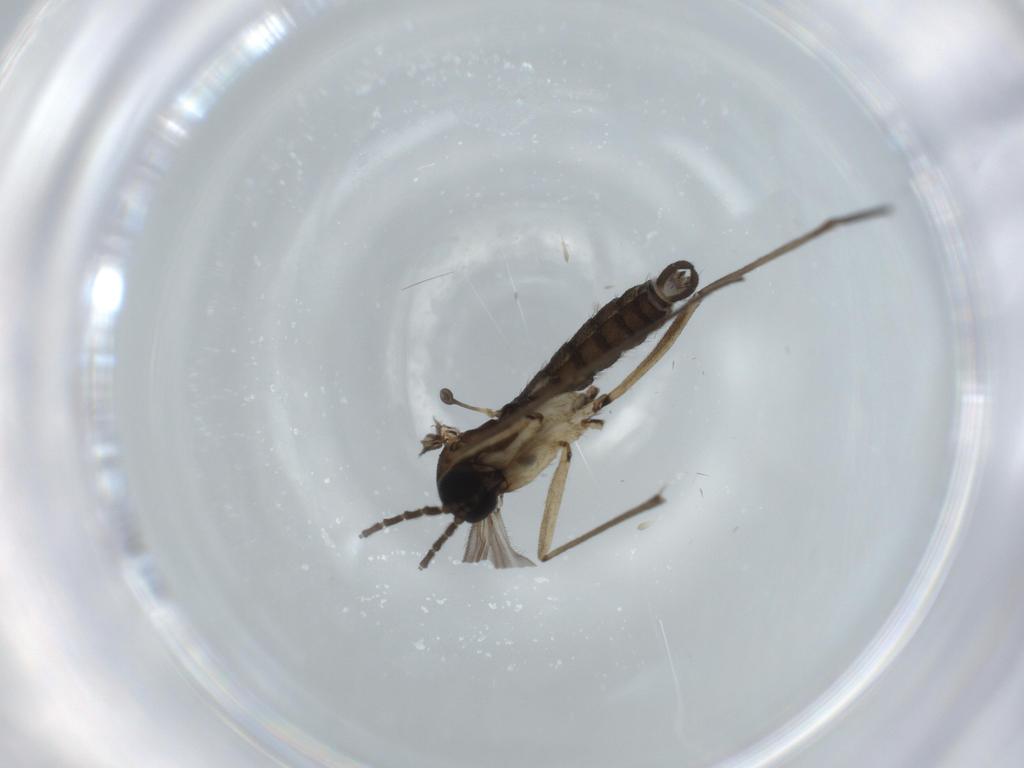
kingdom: Animalia
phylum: Arthropoda
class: Insecta
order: Diptera
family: Sciaridae
